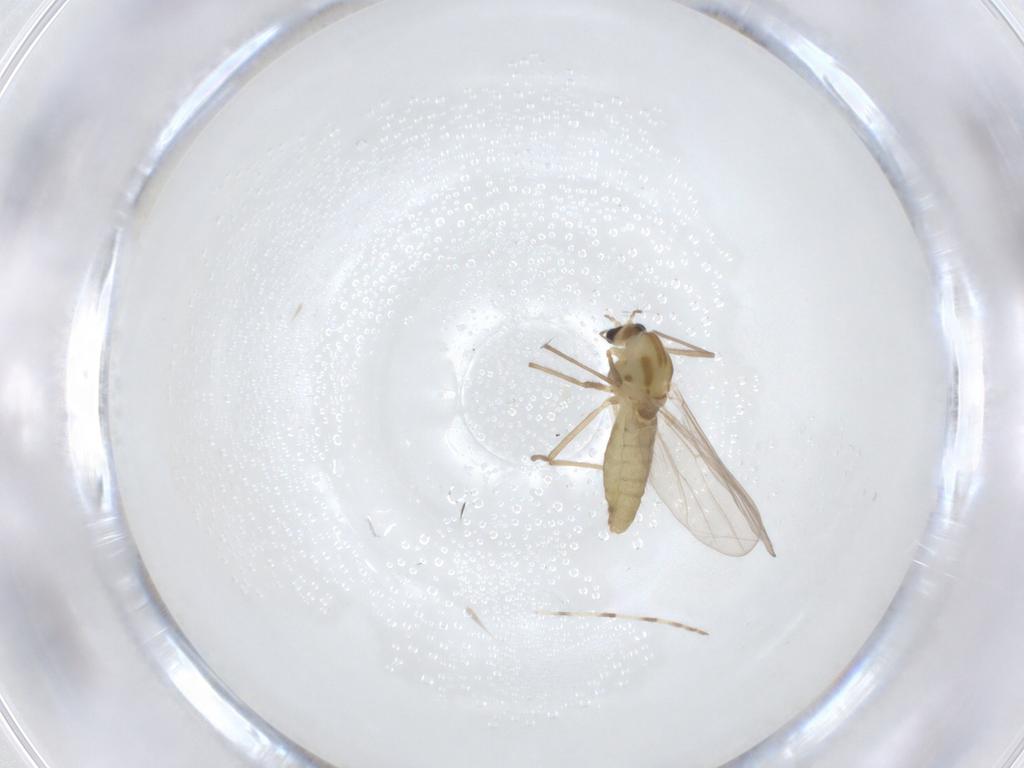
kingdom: Animalia
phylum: Arthropoda
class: Insecta
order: Diptera
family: Chironomidae
